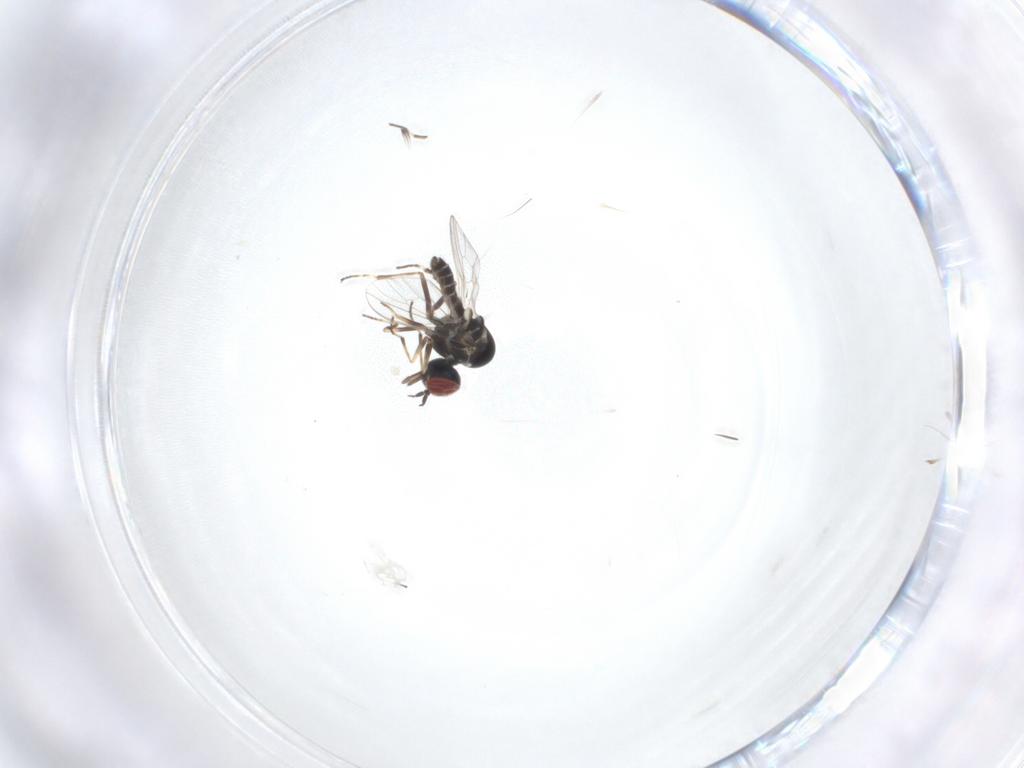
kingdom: Animalia
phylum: Arthropoda
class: Insecta
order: Diptera
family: Mythicomyiidae
